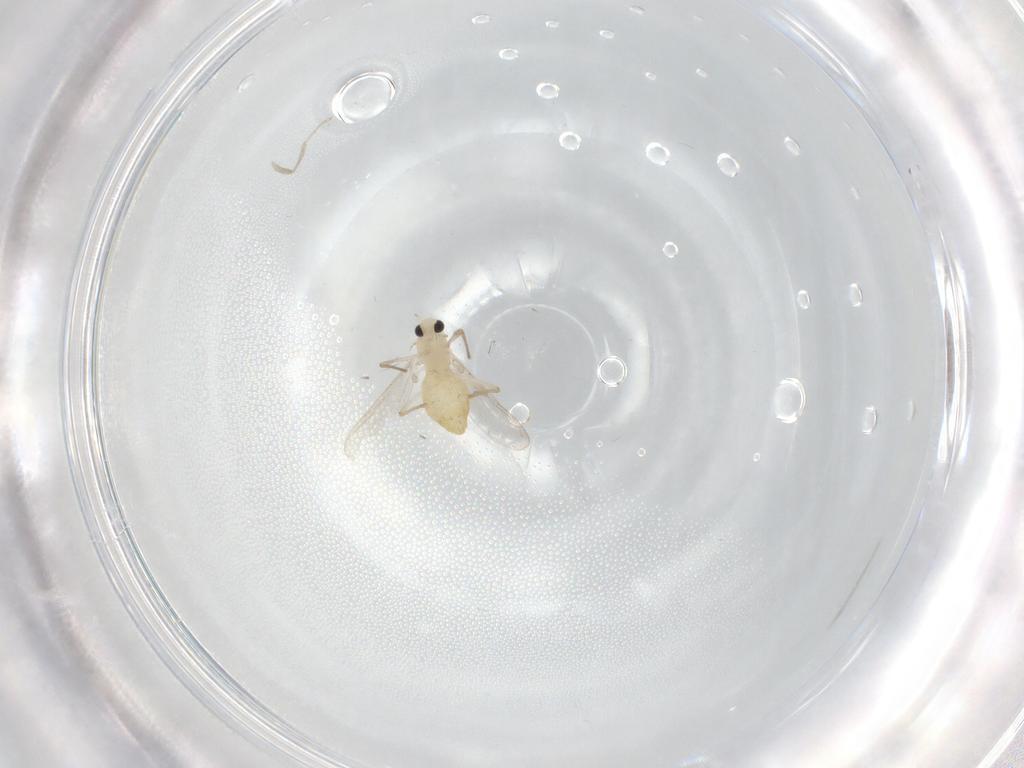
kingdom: Animalia
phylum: Arthropoda
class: Insecta
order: Diptera
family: Chironomidae
